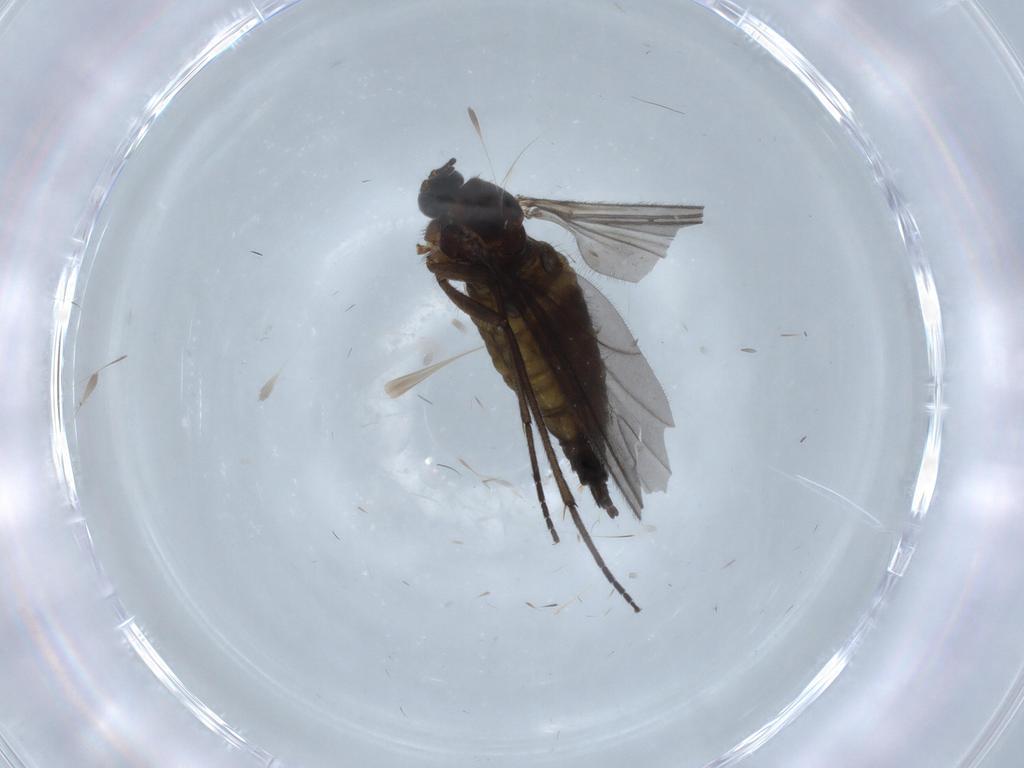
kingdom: Animalia
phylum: Arthropoda
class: Insecta
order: Diptera
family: Sciaridae
